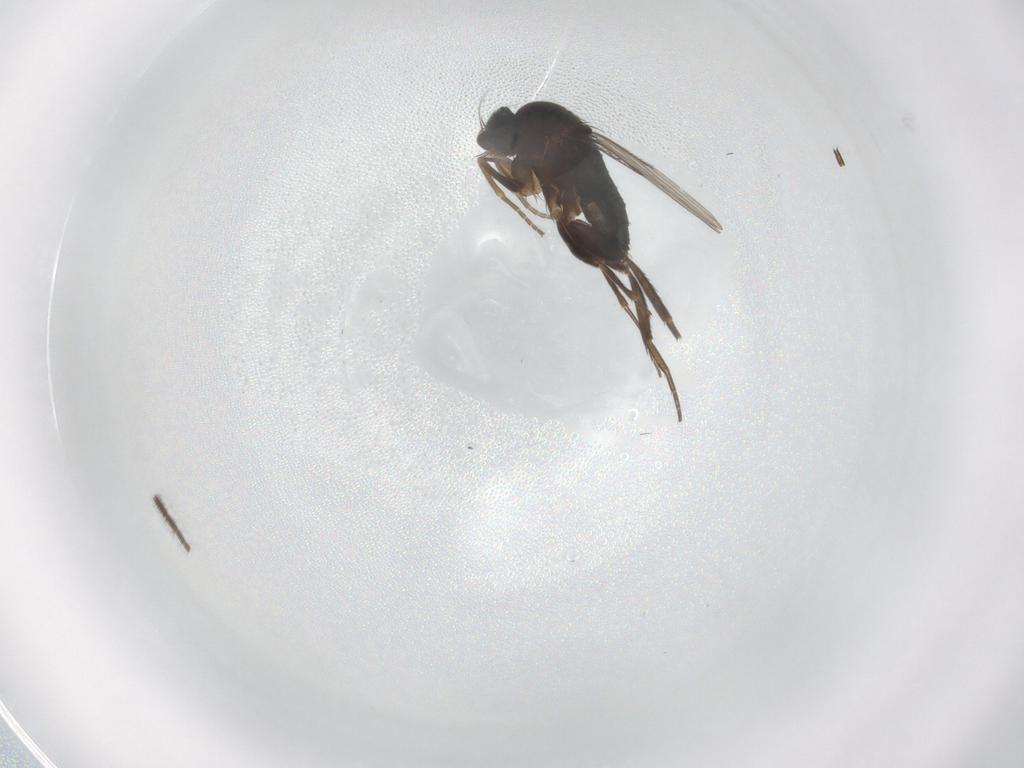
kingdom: Animalia
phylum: Arthropoda
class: Insecta
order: Diptera
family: Phoridae
